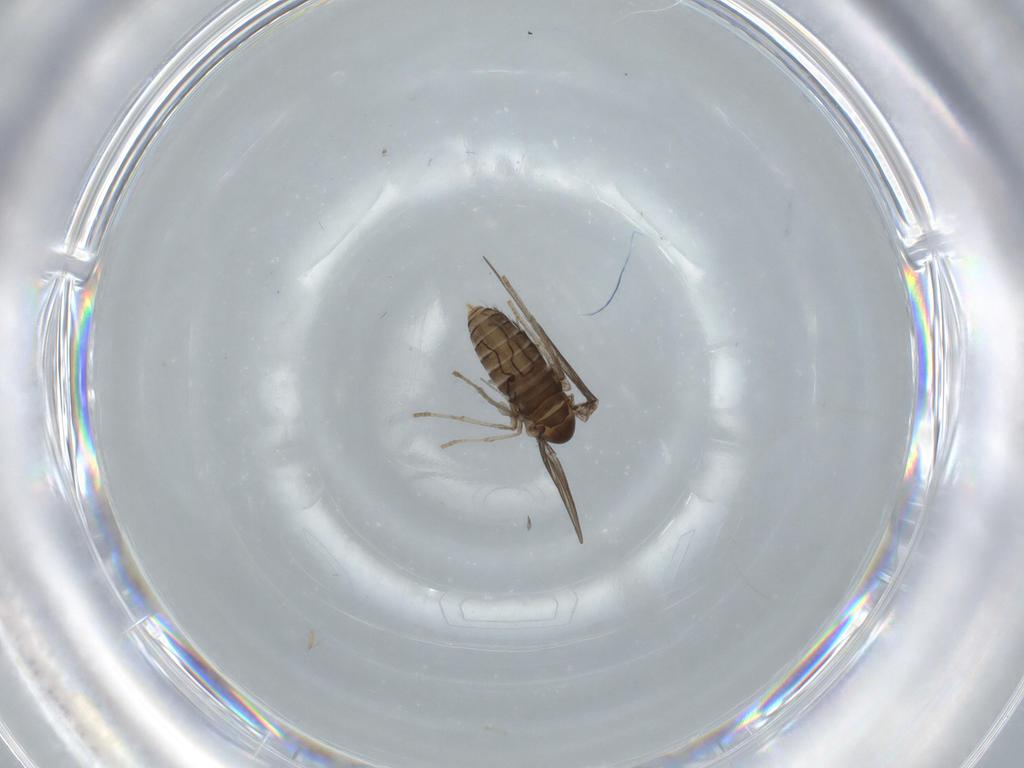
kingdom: Animalia
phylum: Arthropoda
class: Insecta
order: Diptera
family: Psychodidae
